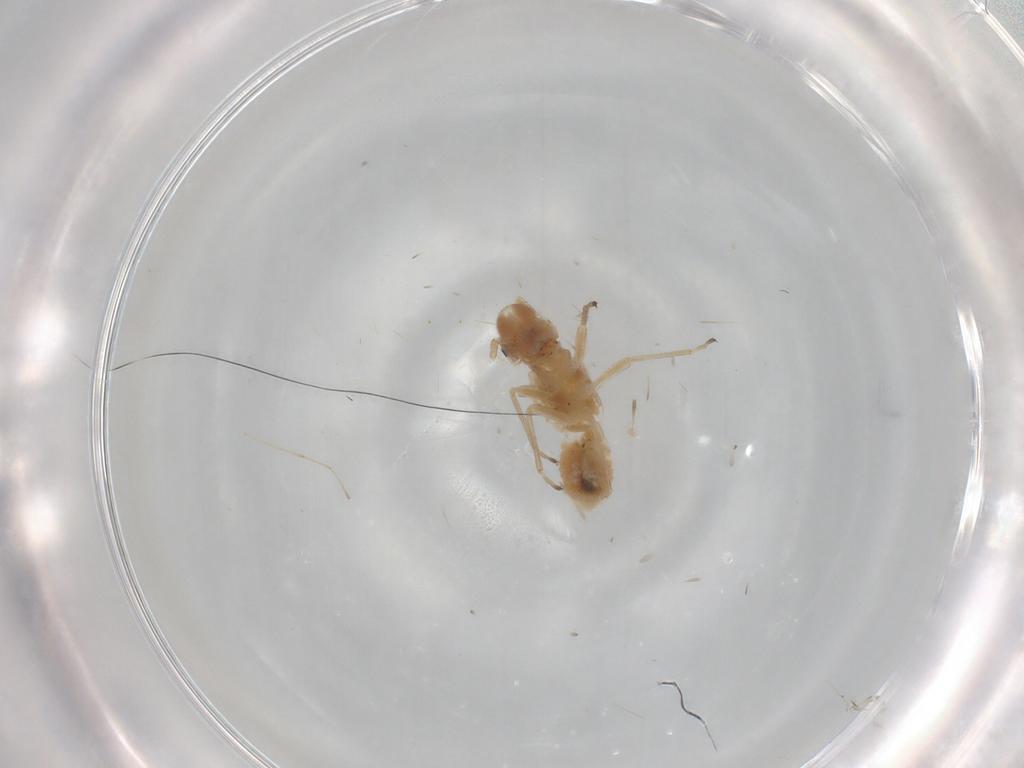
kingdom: Animalia
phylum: Arthropoda
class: Insecta
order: Psocodea
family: Caeciliusidae
